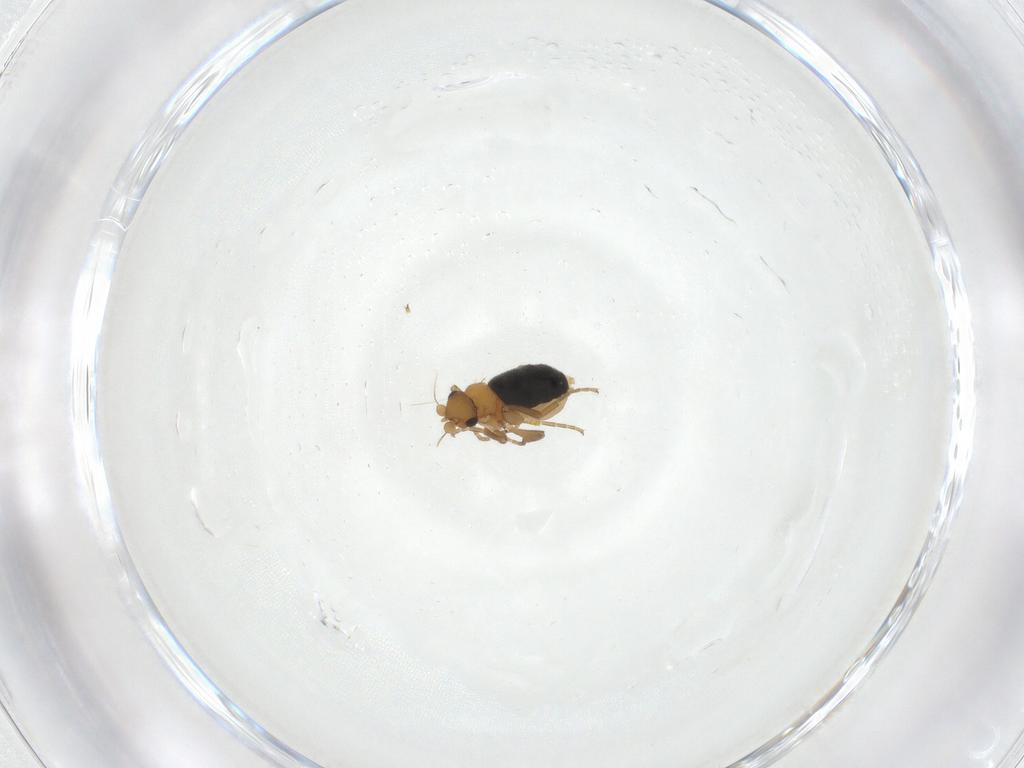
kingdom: Animalia
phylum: Arthropoda
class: Insecta
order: Diptera
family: Phoridae
